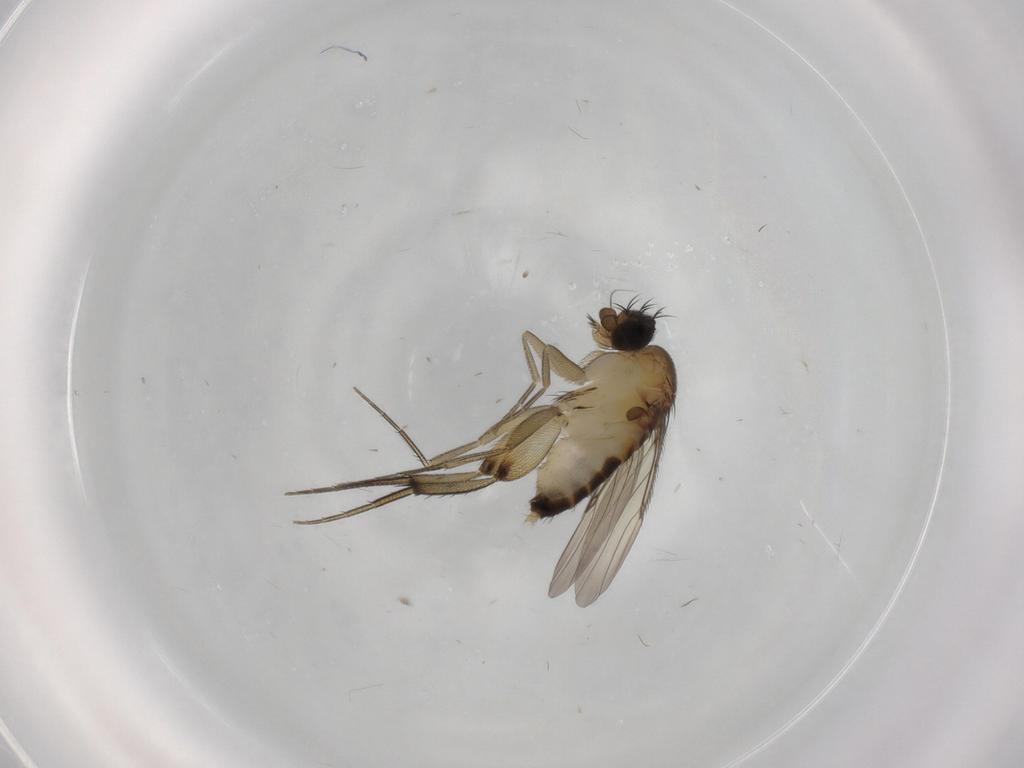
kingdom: Animalia
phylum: Arthropoda
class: Insecta
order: Diptera
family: Phoridae
